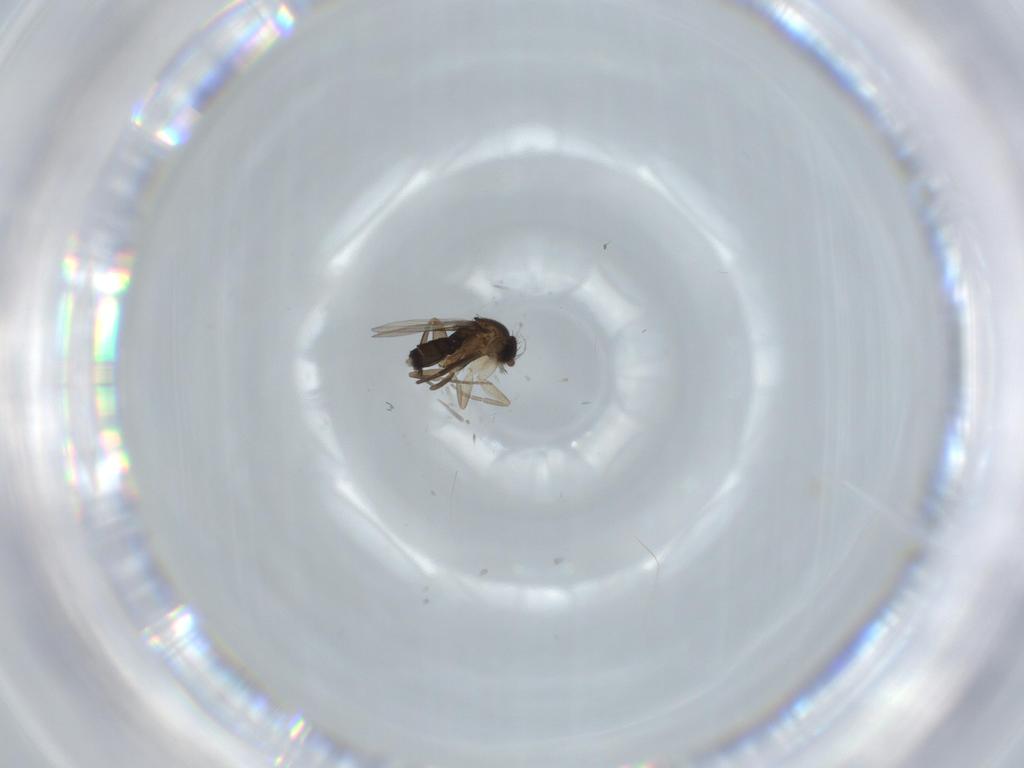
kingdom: Animalia
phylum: Arthropoda
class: Insecta
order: Diptera
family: Phoridae
